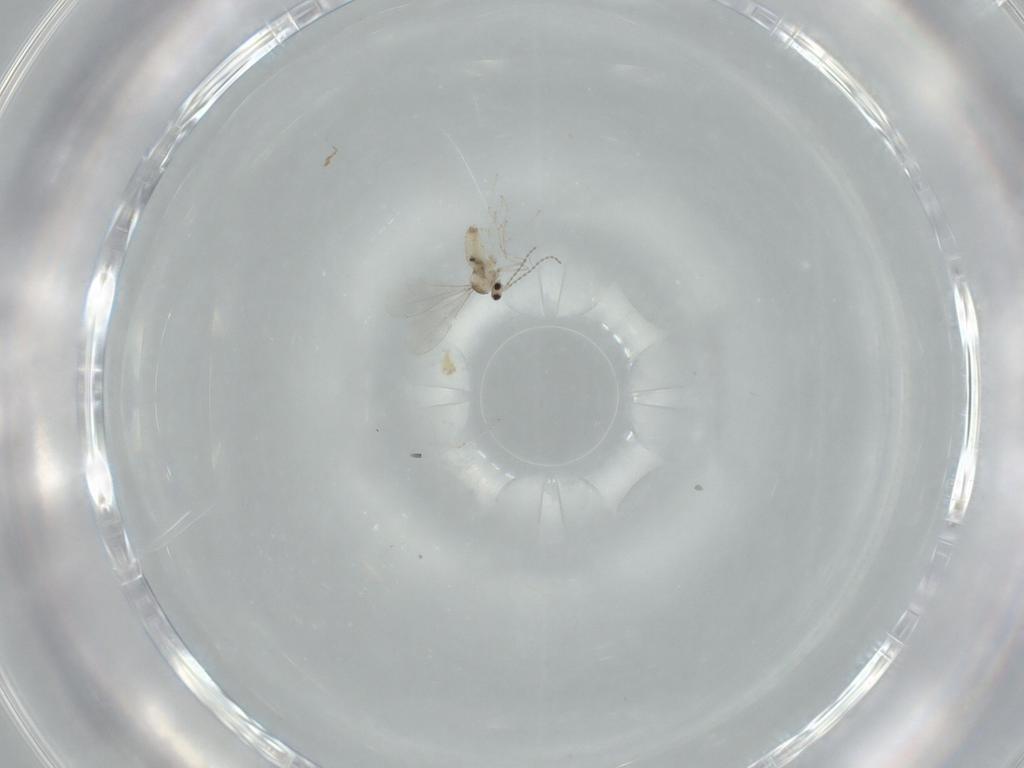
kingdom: Animalia
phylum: Arthropoda
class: Insecta
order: Diptera
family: Cecidomyiidae
